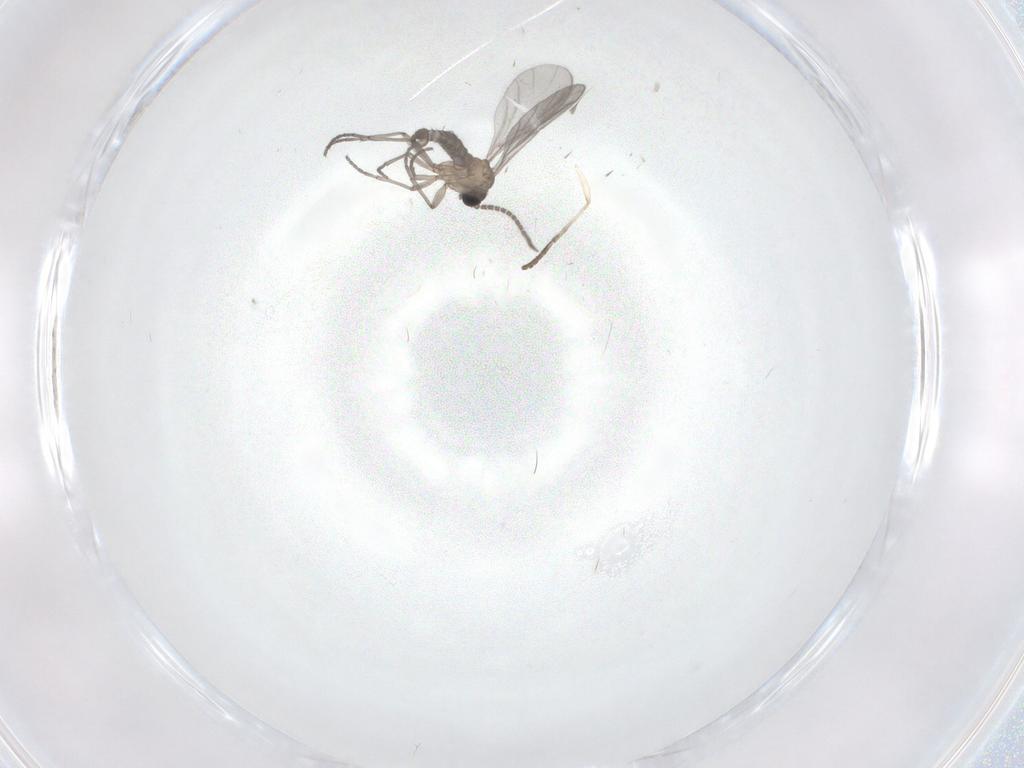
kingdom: Animalia
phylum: Arthropoda
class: Insecta
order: Diptera
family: Sciaridae
